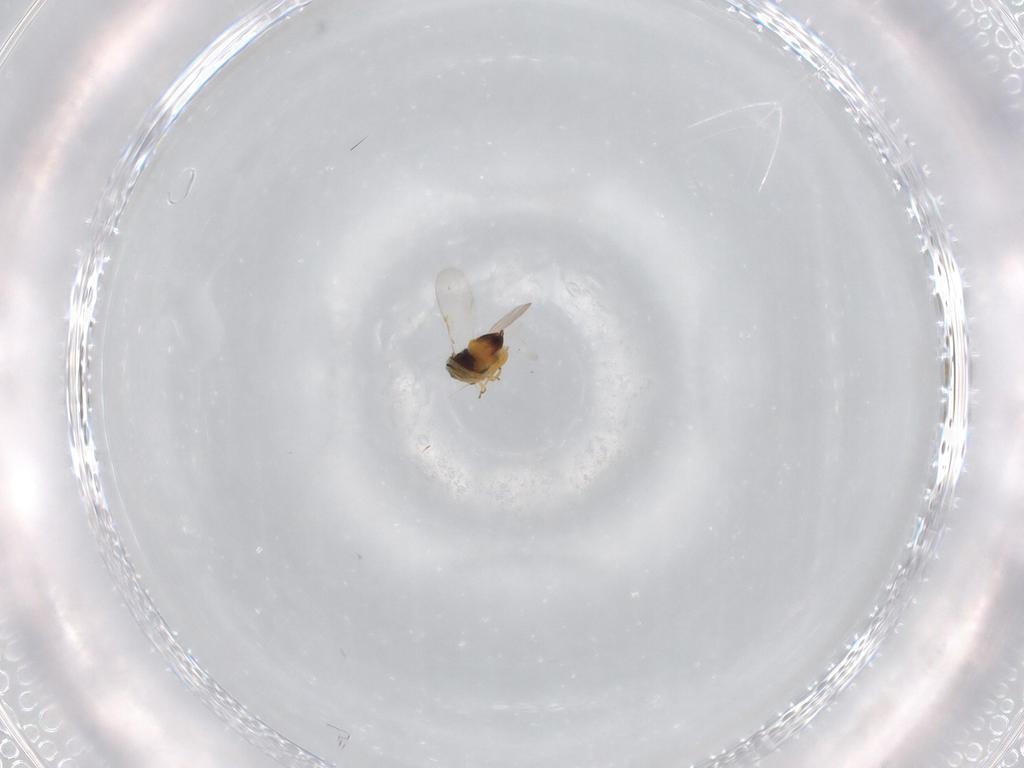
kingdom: Animalia
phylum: Arthropoda
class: Insecta
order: Hymenoptera
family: Encyrtidae
